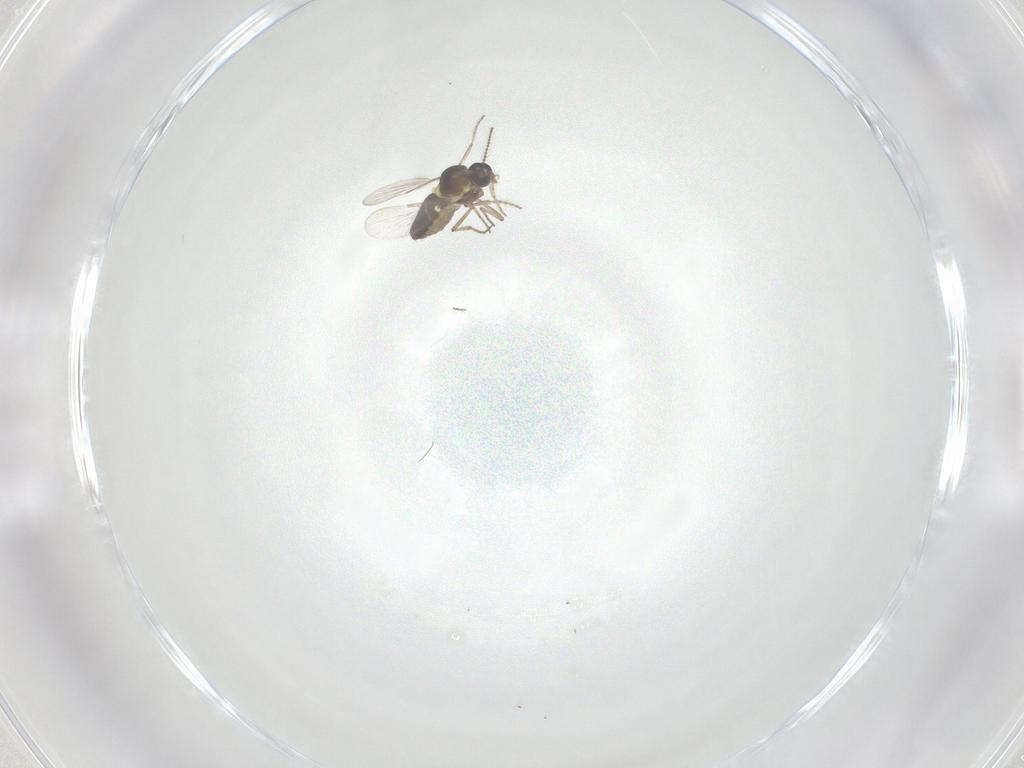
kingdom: Animalia
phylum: Arthropoda
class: Insecta
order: Diptera
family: Ceratopogonidae
